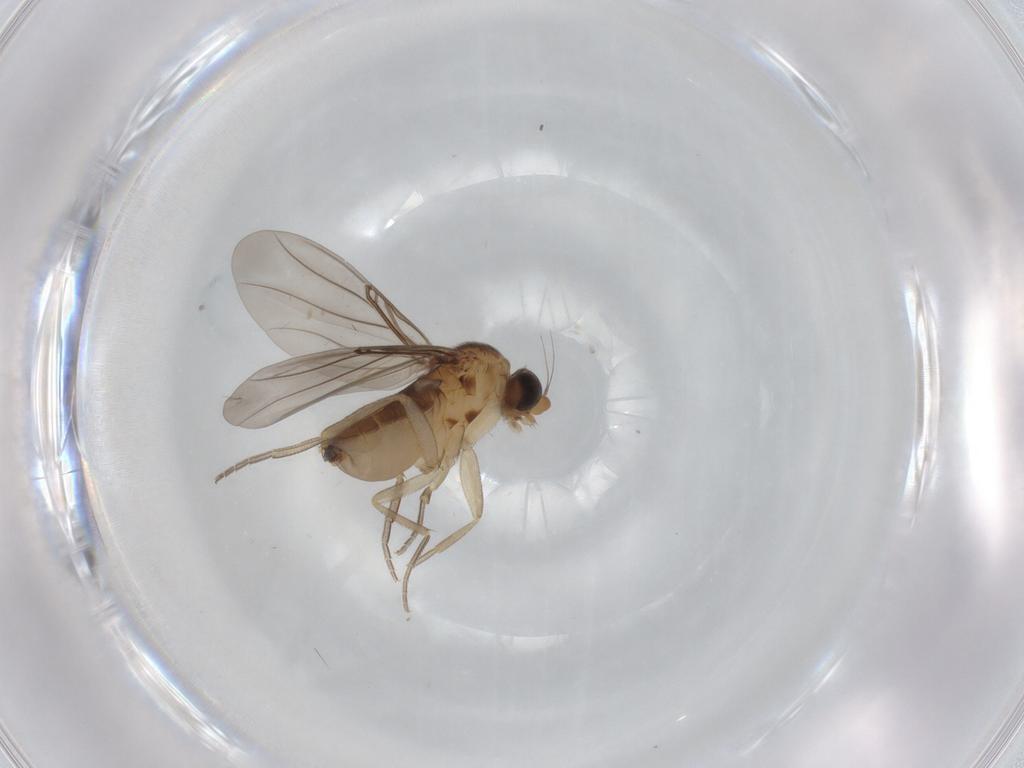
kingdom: Animalia
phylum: Arthropoda
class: Insecta
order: Diptera
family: Phoridae
